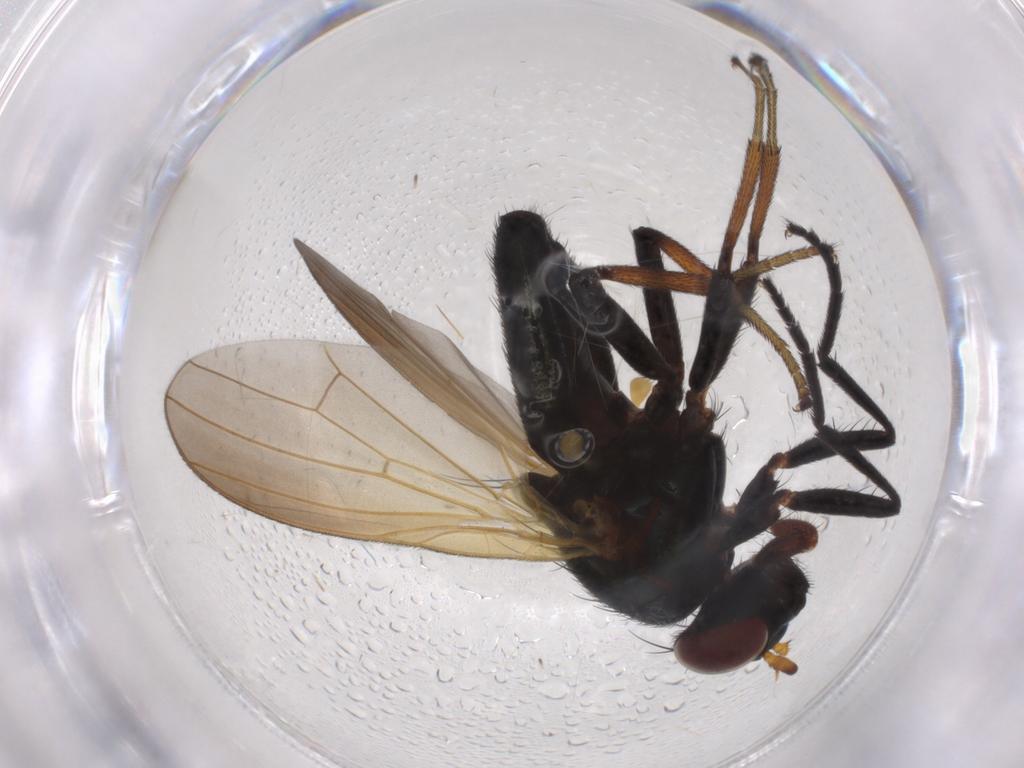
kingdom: Animalia
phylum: Arthropoda
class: Insecta
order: Diptera
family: Lauxaniidae
